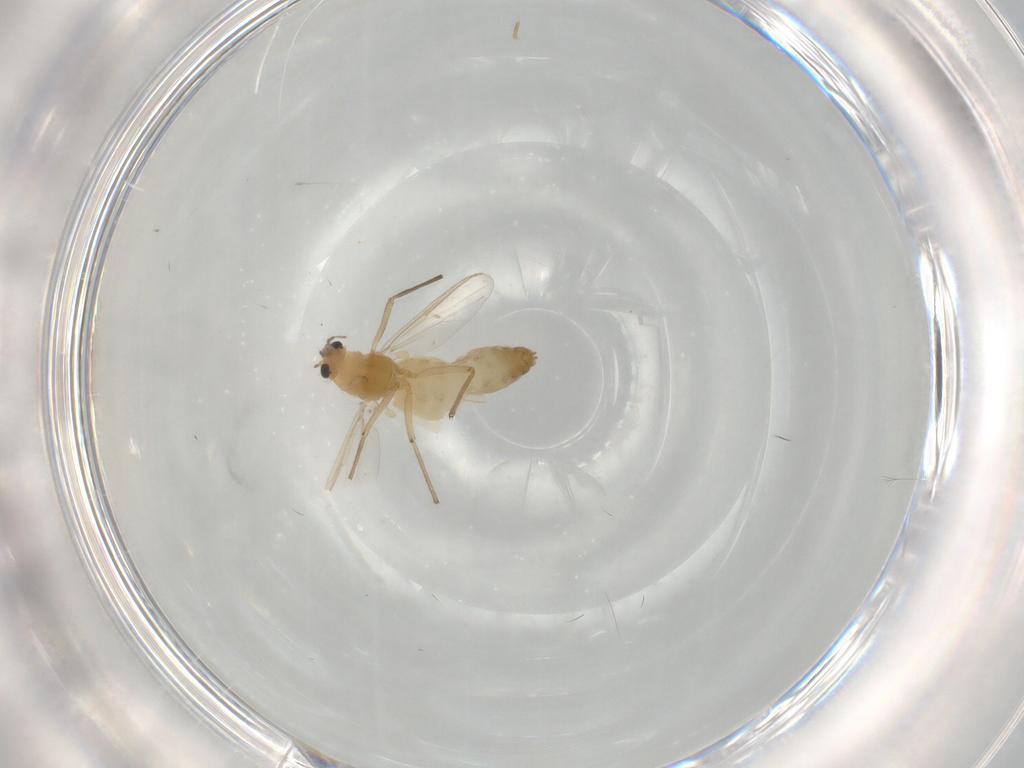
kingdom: Animalia
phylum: Arthropoda
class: Insecta
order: Diptera
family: Chironomidae
